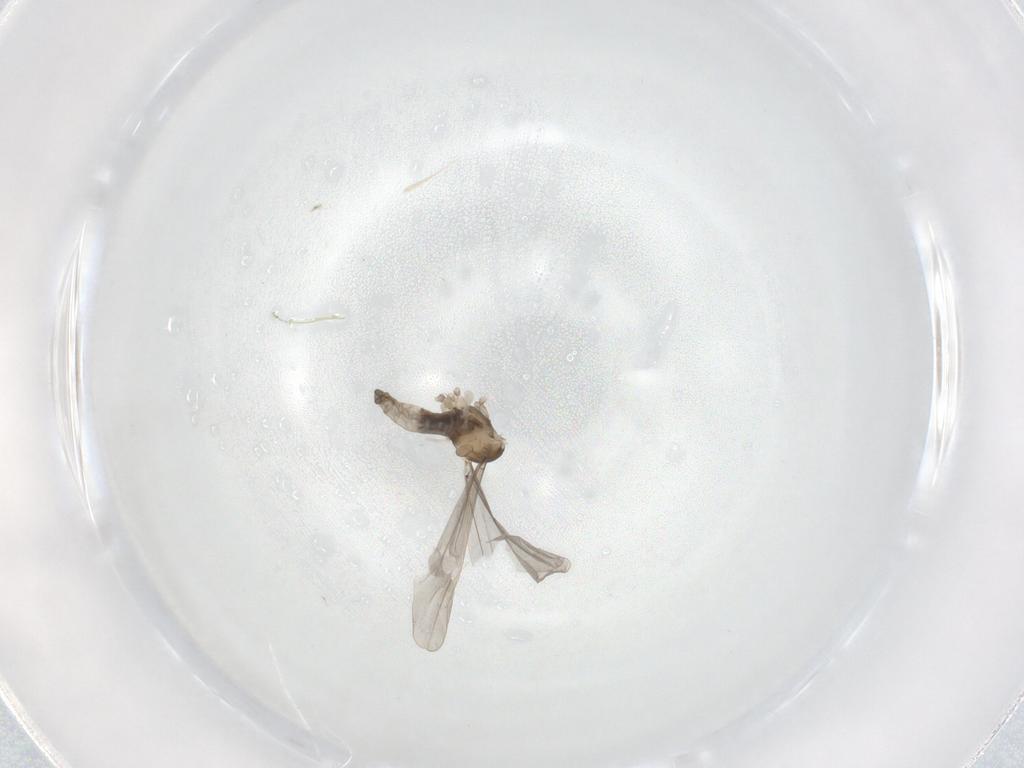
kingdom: Animalia
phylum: Arthropoda
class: Insecta
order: Diptera
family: Cecidomyiidae
